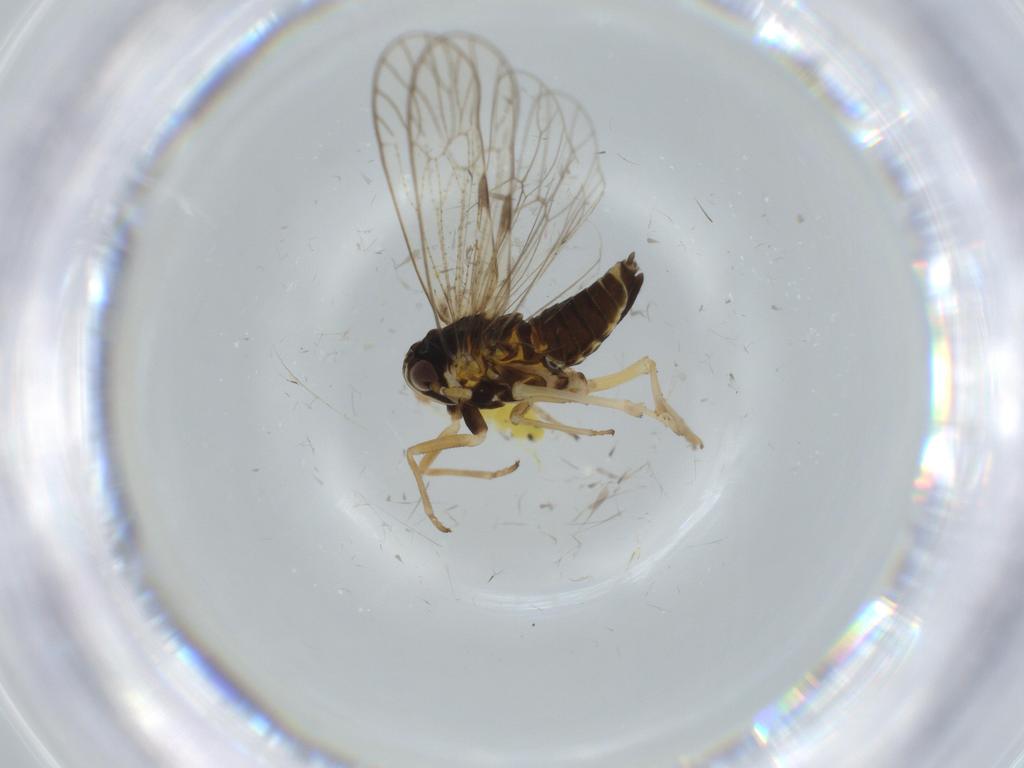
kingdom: Animalia
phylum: Arthropoda
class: Insecta
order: Hemiptera
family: Aleyrodidae
